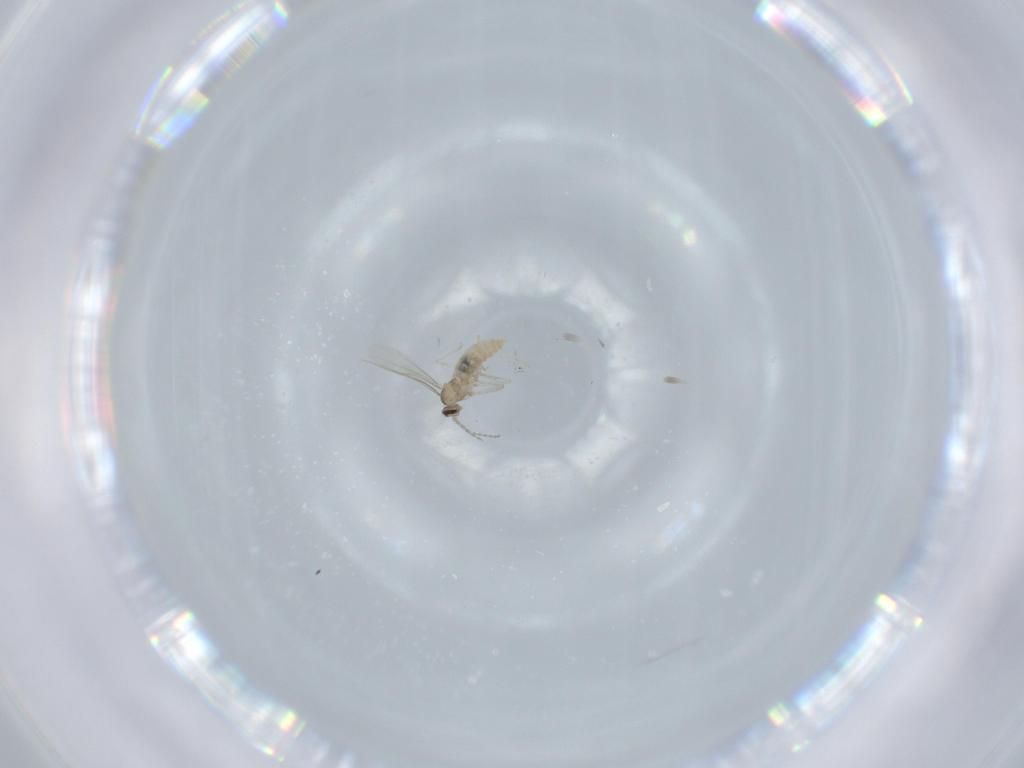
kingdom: Animalia
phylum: Arthropoda
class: Insecta
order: Diptera
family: Cecidomyiidae
